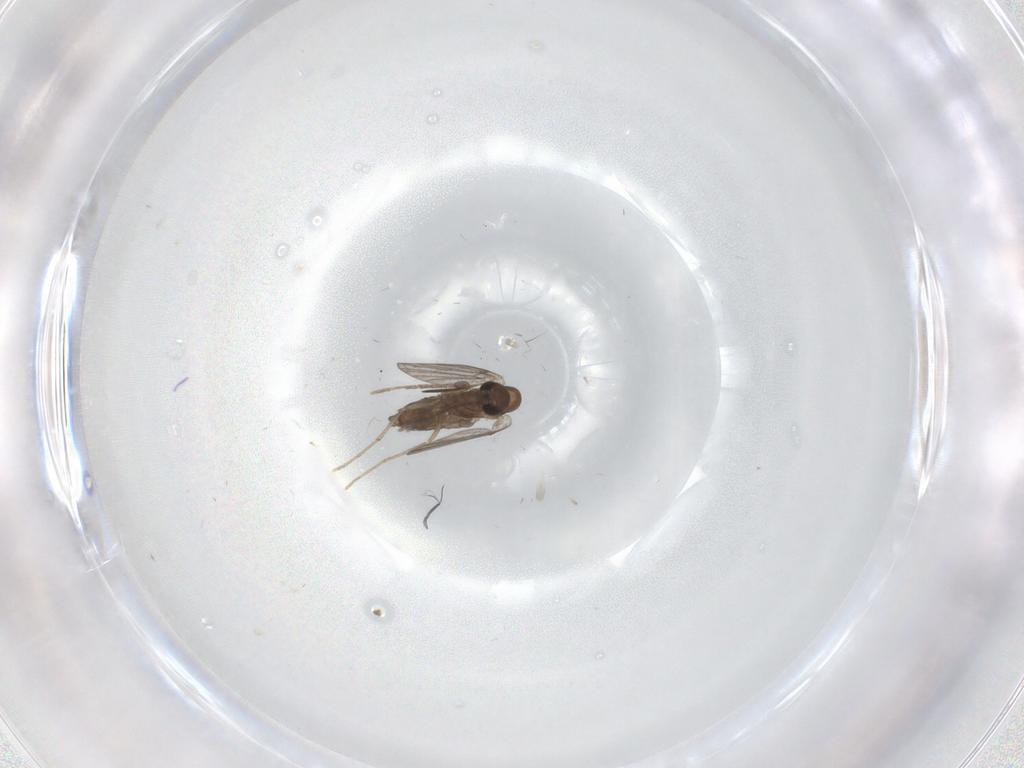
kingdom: Animalia
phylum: Arthropoda
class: Insecta
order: Diptera
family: Ceratopogonidae
